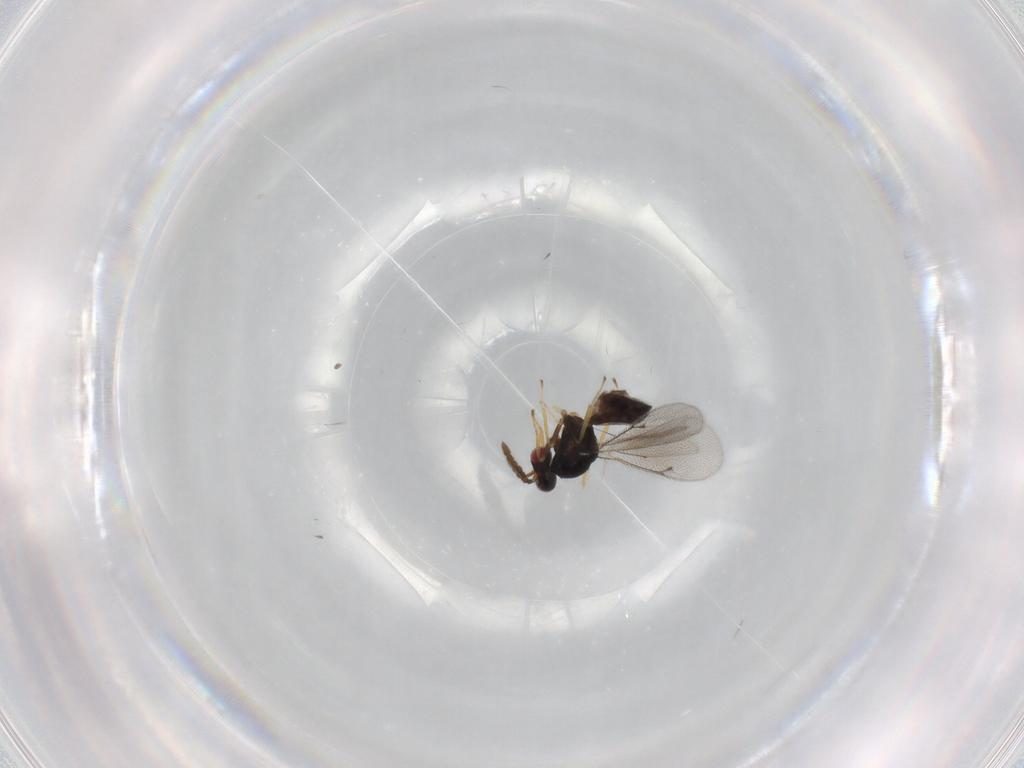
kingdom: Animalia
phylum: Arthropoda
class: Insecta
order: Hymenoptera
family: Eulophidae
